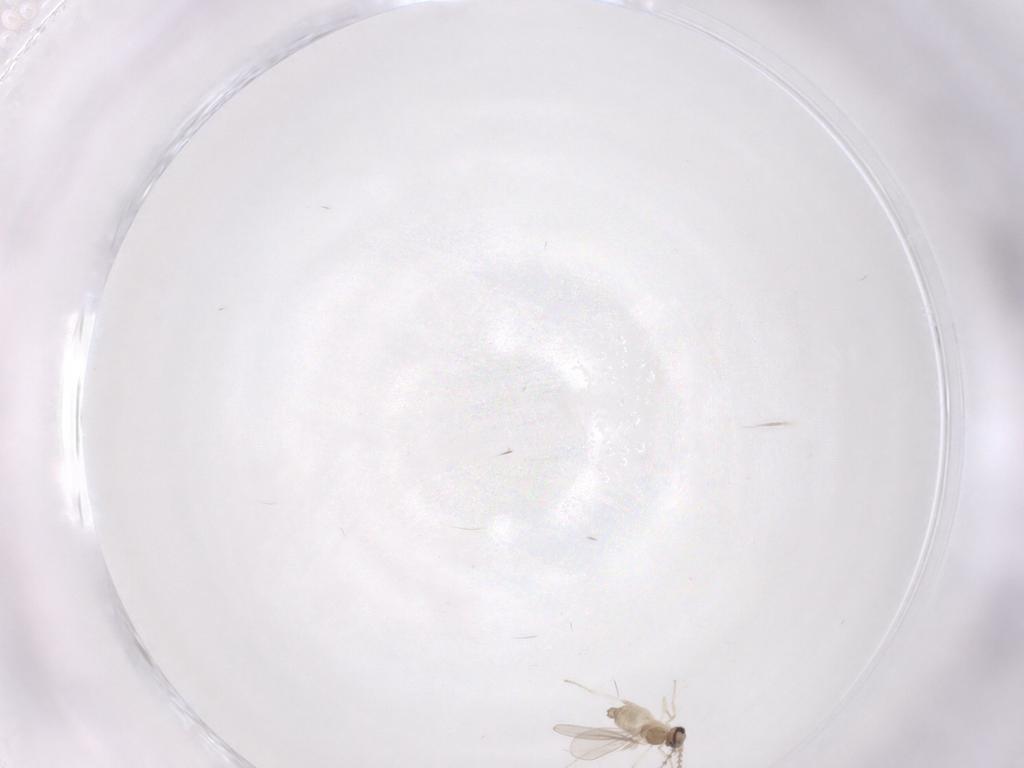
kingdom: Animalia
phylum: Arthropoda
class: Insecta
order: Diptera
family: Cecidomyiidae
